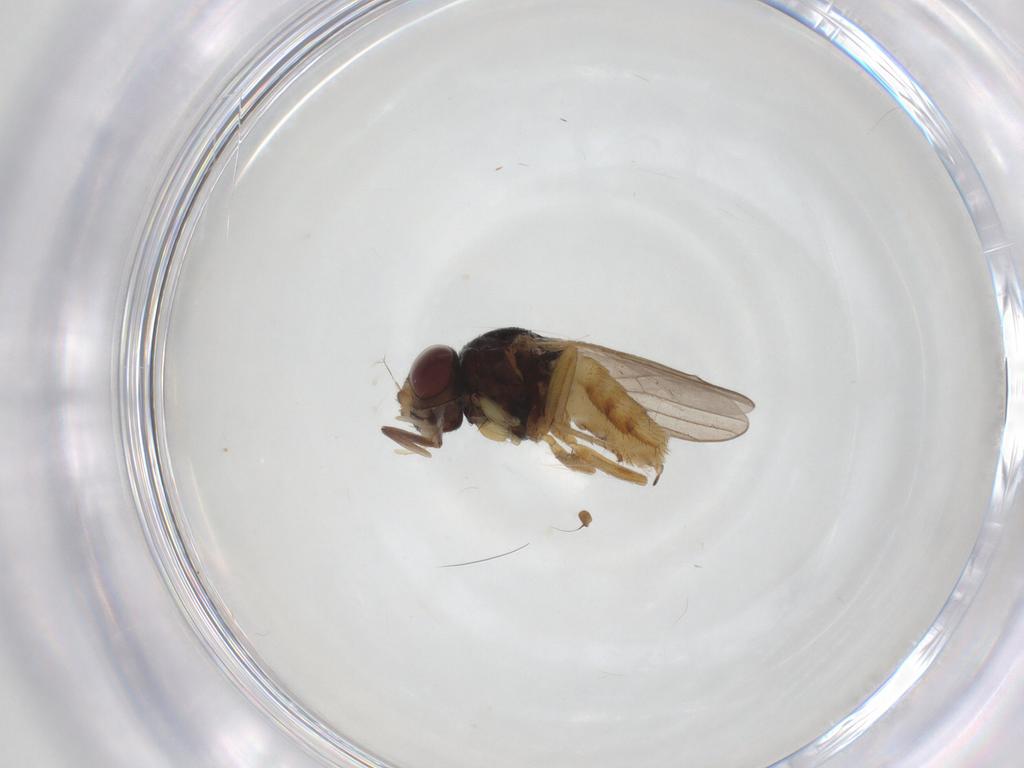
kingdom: Animalia
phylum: Arthropoda
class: Insecta
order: Diptera
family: Chloropidae
